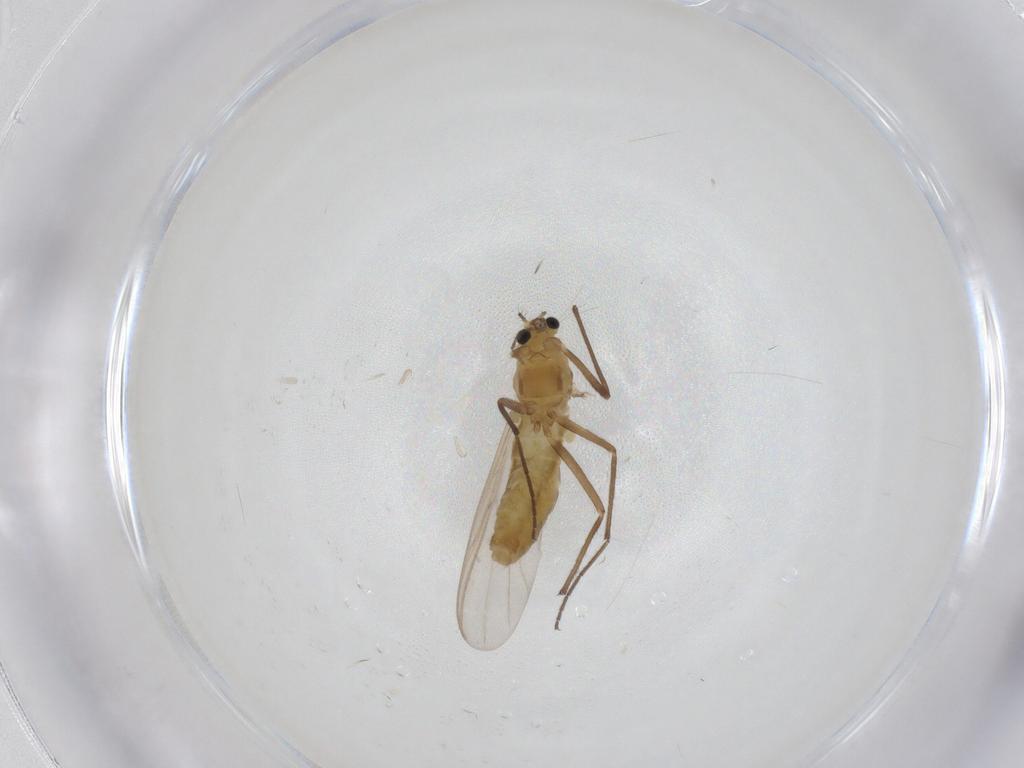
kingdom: Animalia
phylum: Arthropoda
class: Insecta
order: Diptera
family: Chironomidae
